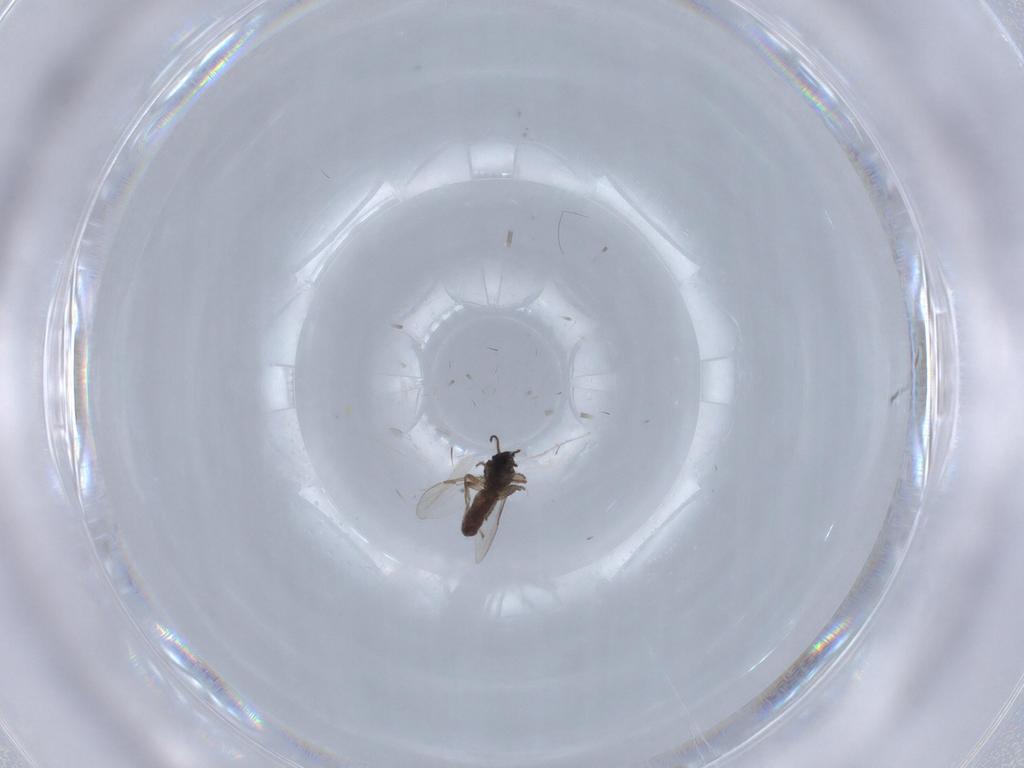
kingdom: Animalia
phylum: Arthropoda
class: Insecta
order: Diptera
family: Ceratopogonidae
